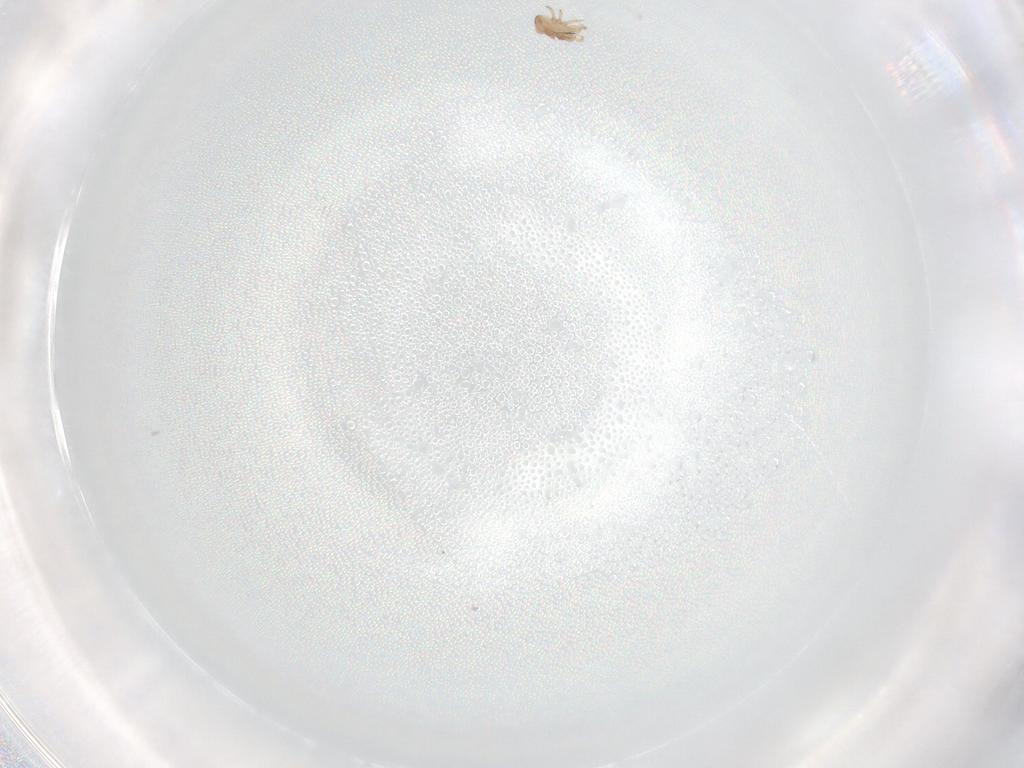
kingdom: Animalia
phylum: Arthropoda
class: Arachnida
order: Mesostigmata
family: Ascidae
